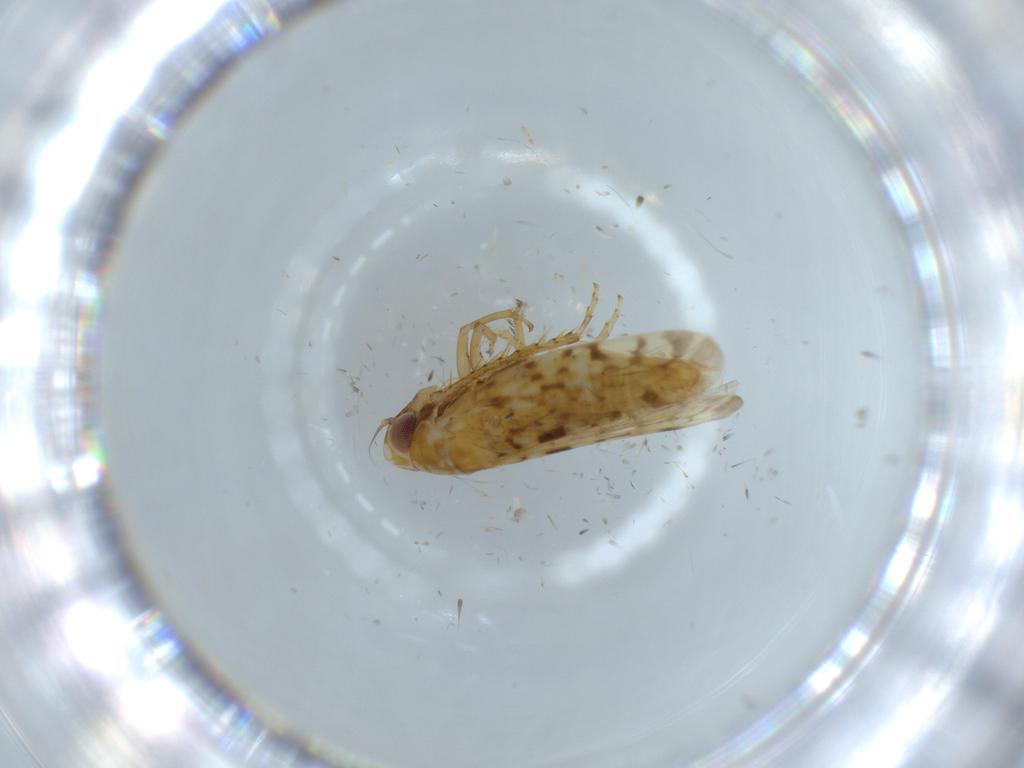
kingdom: Animalia
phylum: Arthropoda
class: Insecta
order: Hemiptera
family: Cicadellidae
